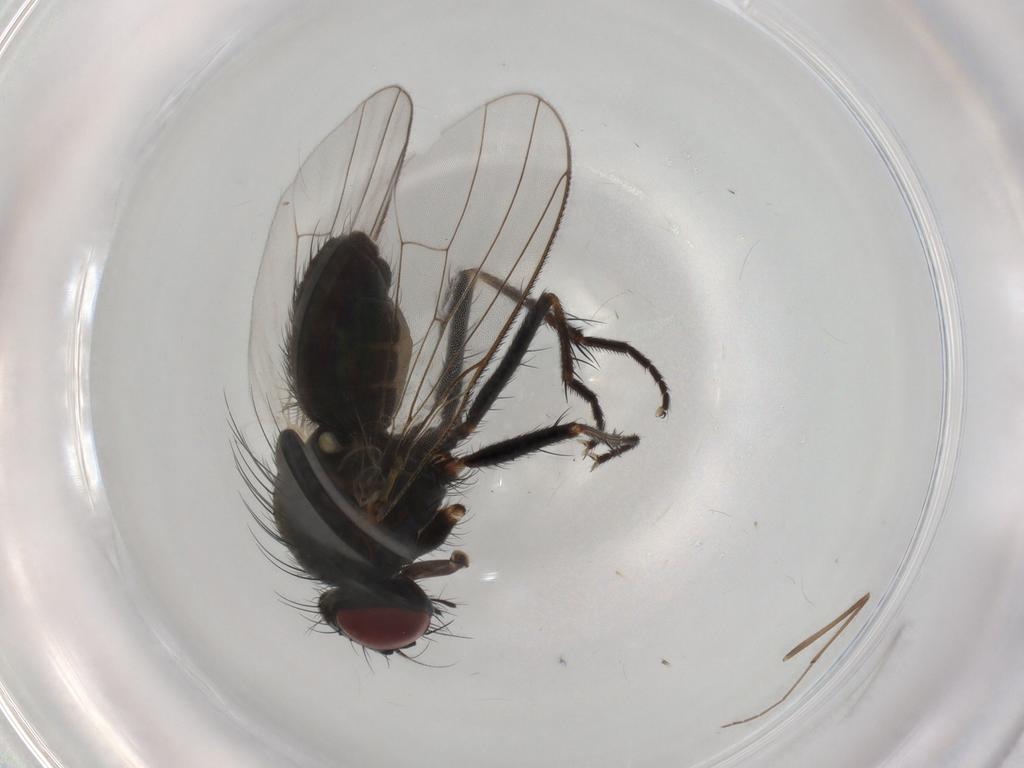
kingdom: Animalia
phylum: Arthropoda
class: Insecta
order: Diptera
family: Muscidae
